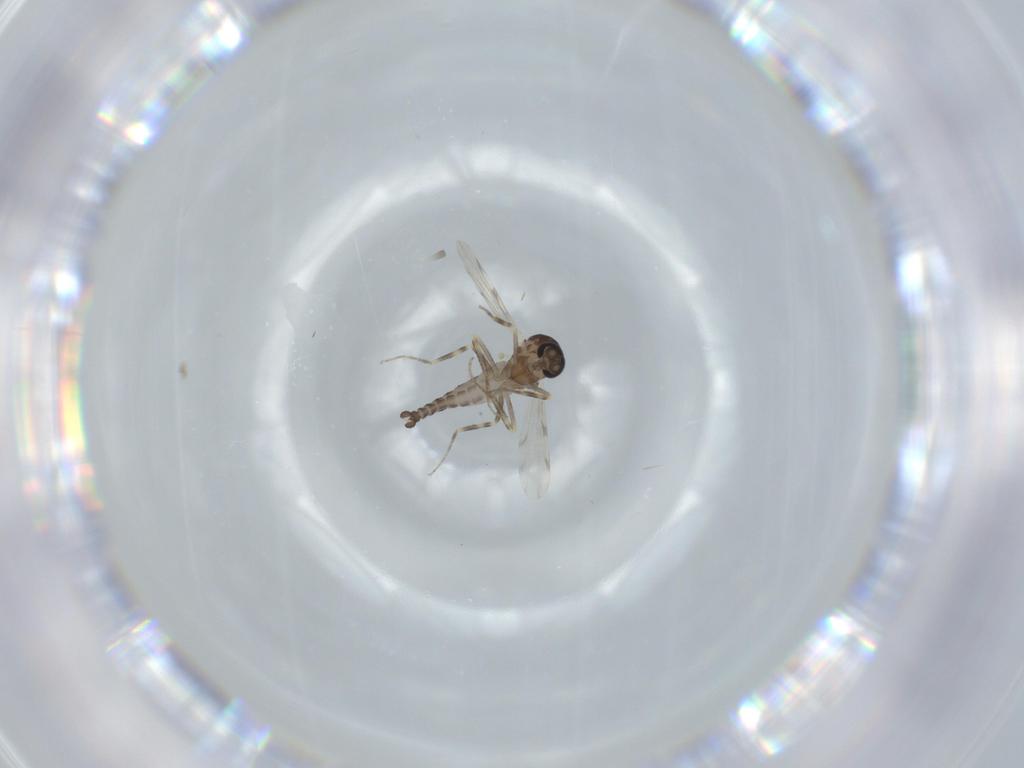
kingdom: Animalia
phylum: Arthropoda
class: Insecta
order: Diptera
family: Ceratopogonidae
